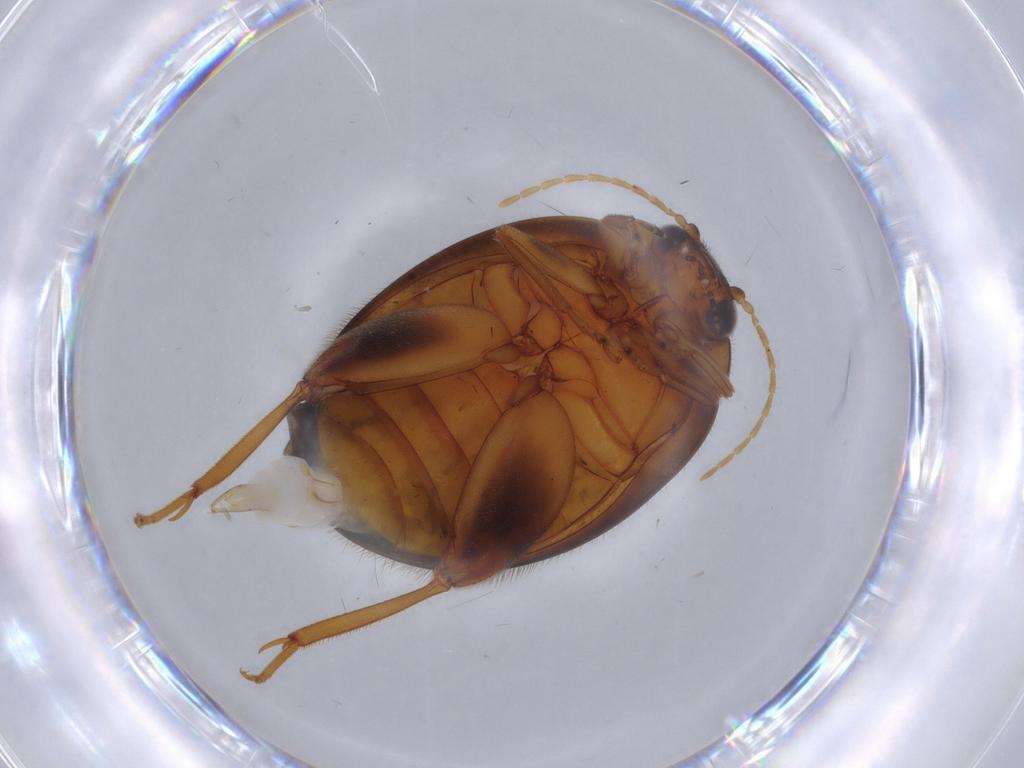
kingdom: Animalia
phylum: Arthropoda
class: Insecta
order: Coleoptera
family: Scirtidae
